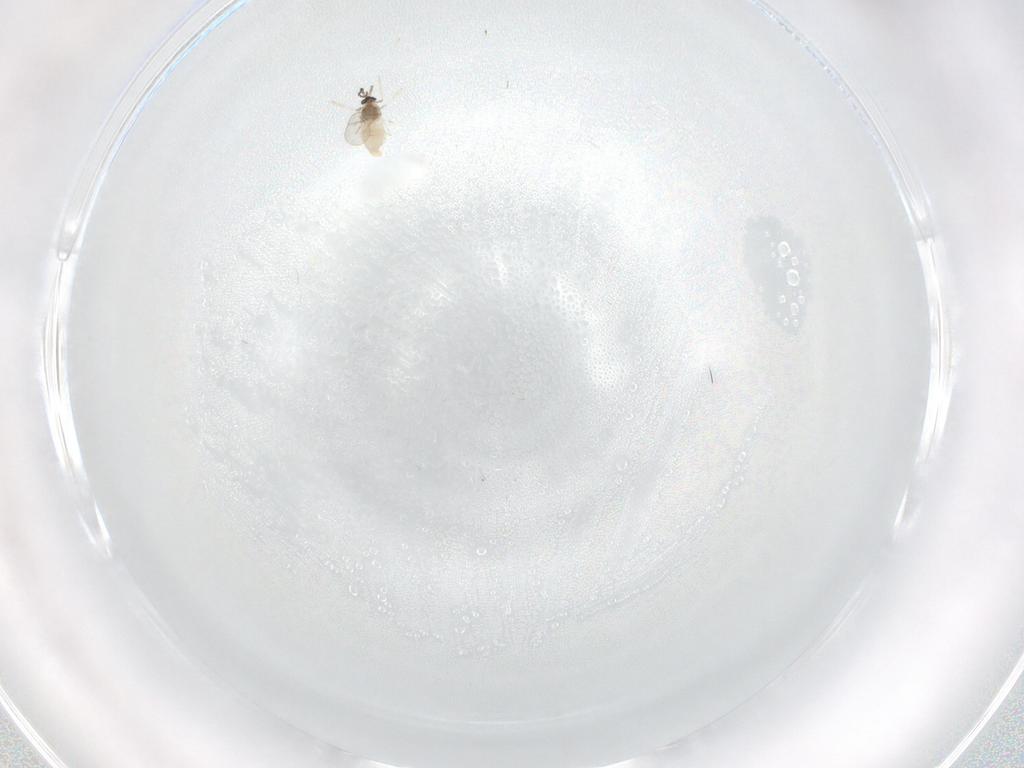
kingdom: Animalia
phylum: Arthropoda
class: Insecta
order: Diptera
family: Cecidomyiidae
